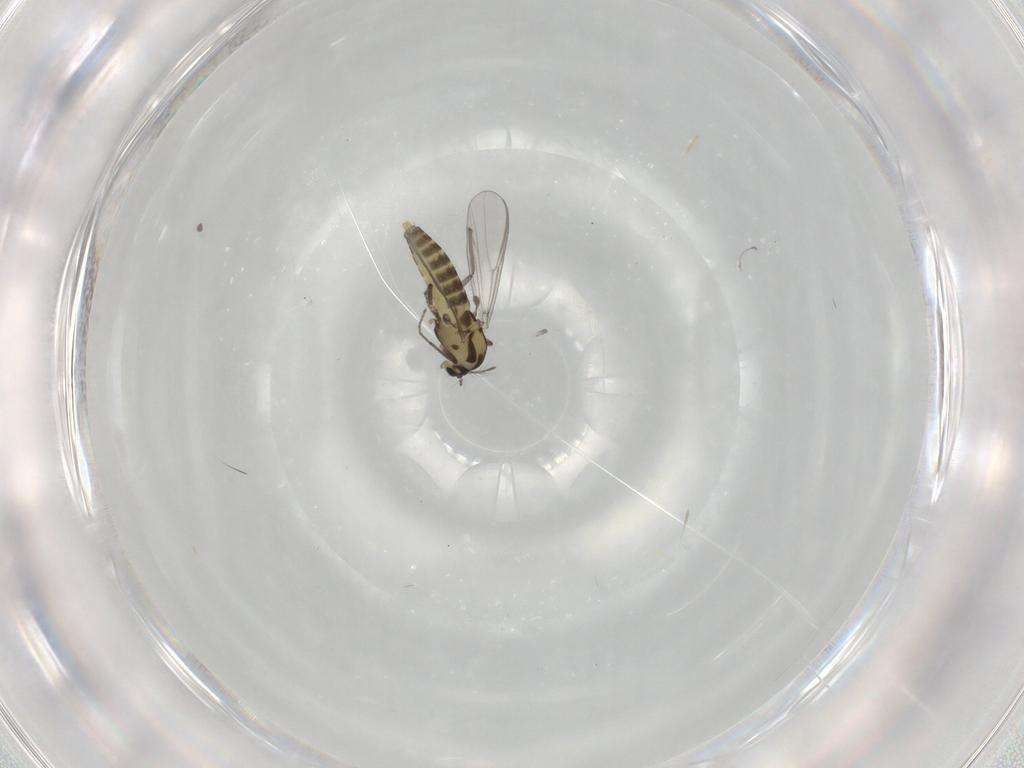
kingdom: Animalia
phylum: Arthropoda
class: Insecta
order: Diptera
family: Chironomidae
